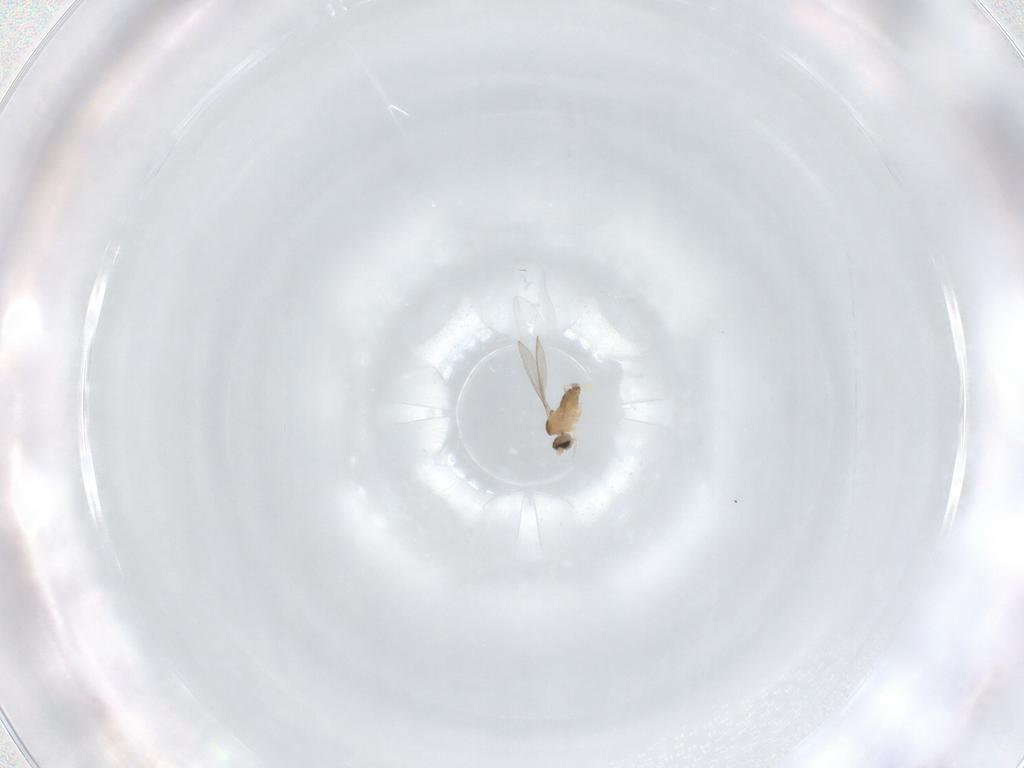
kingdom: Animalia
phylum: Arthropoda
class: Insecta
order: Diptera
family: Cecidomyiidae
